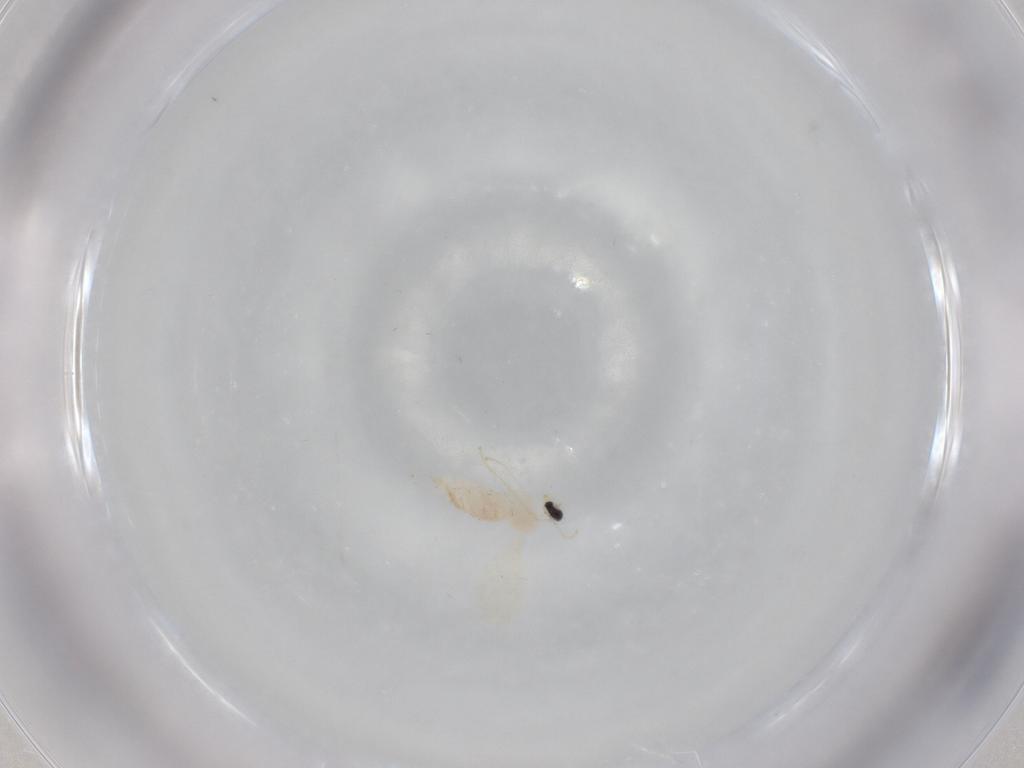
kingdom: Animalia
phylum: Arthropoda
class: Insecta
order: Diptera
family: Cecidomyiidae
